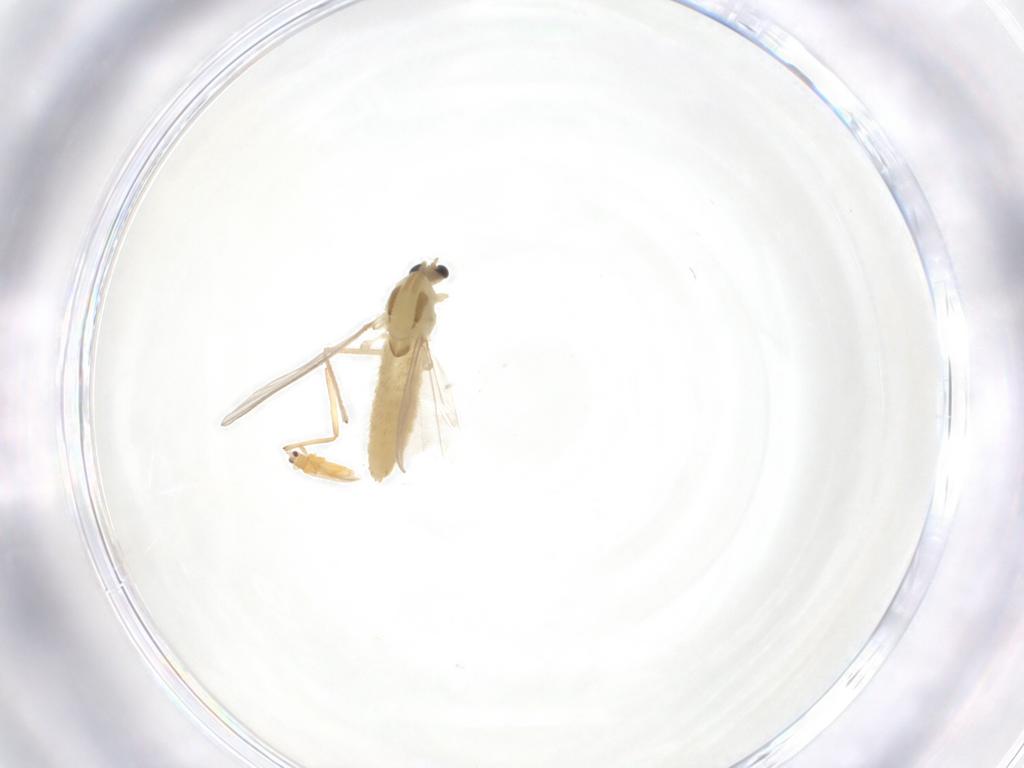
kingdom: Animalia
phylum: Arthropoda
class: Insecta
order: Diptera
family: Chironomidae
